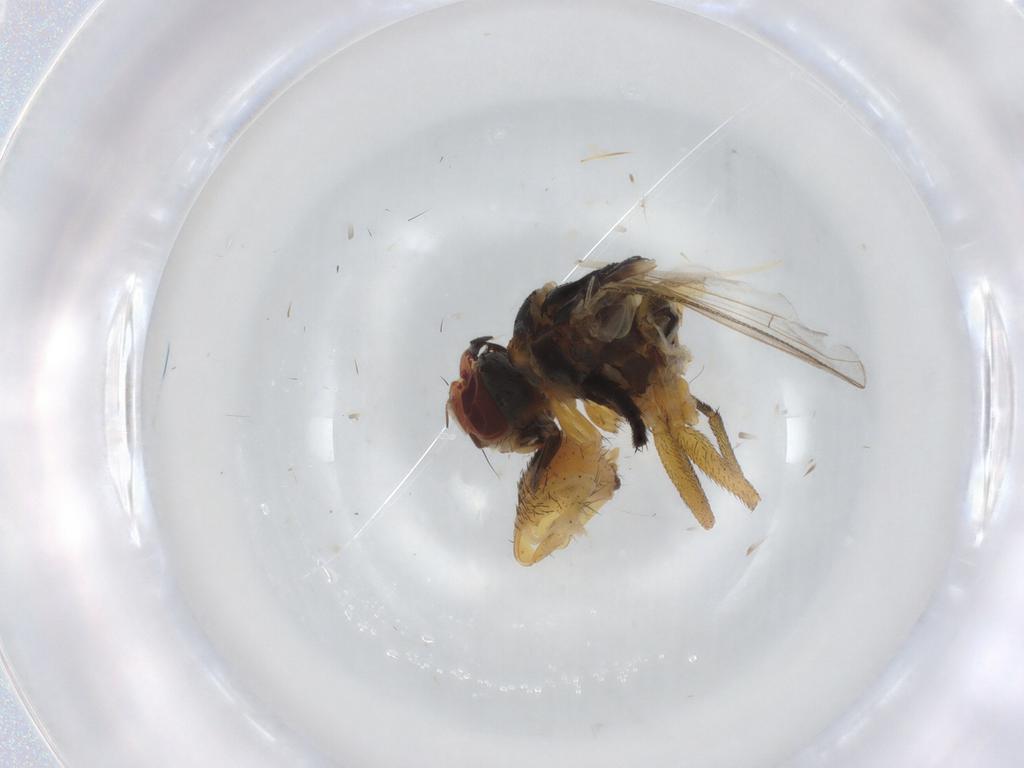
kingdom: Animalia
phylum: Arthropoda
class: Insecta
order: Diptera
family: Muscidae
